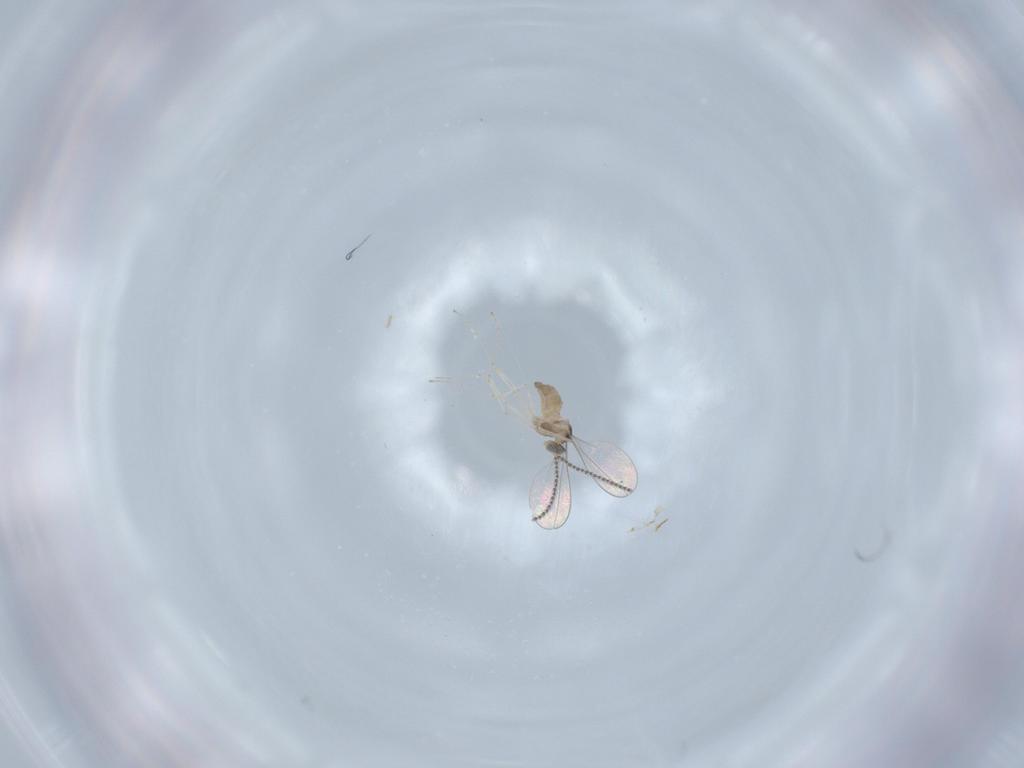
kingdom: Animalia
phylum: Arthropoda
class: Insecta
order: Diptera
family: Cecidomyiidae
